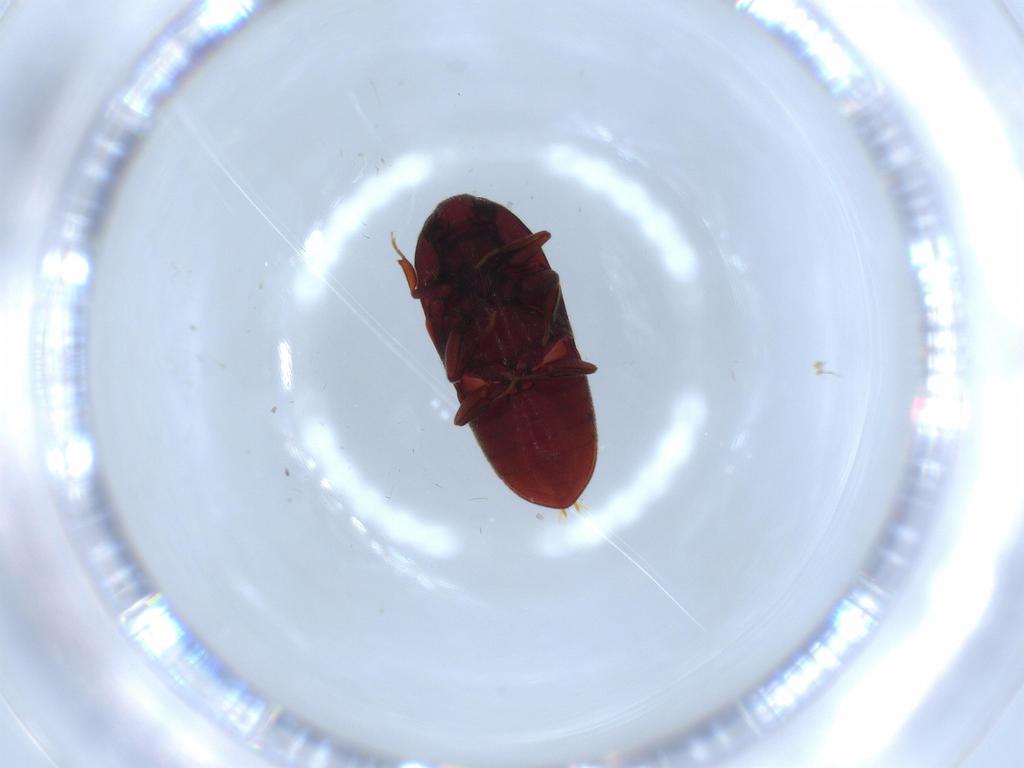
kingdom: Animalia
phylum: Arthropoda
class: Insecta
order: Coleoptera
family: Throscidae
